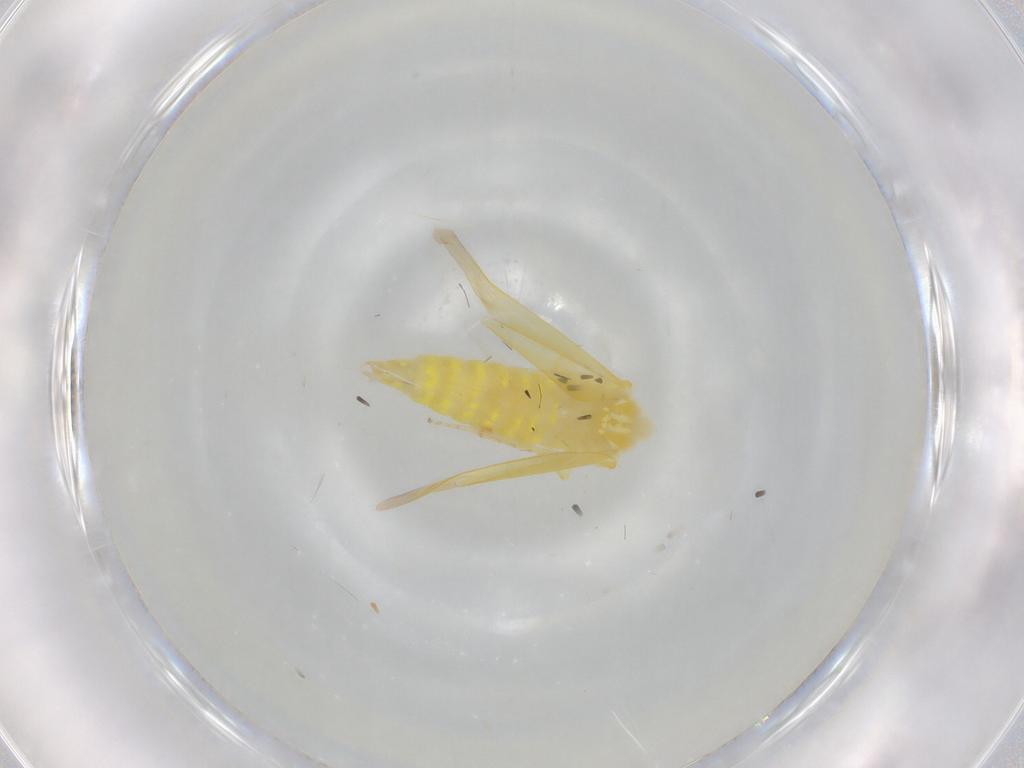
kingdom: Animalia
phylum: Arthropoda
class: Insecta
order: Hemiptera
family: Cicadellidae
